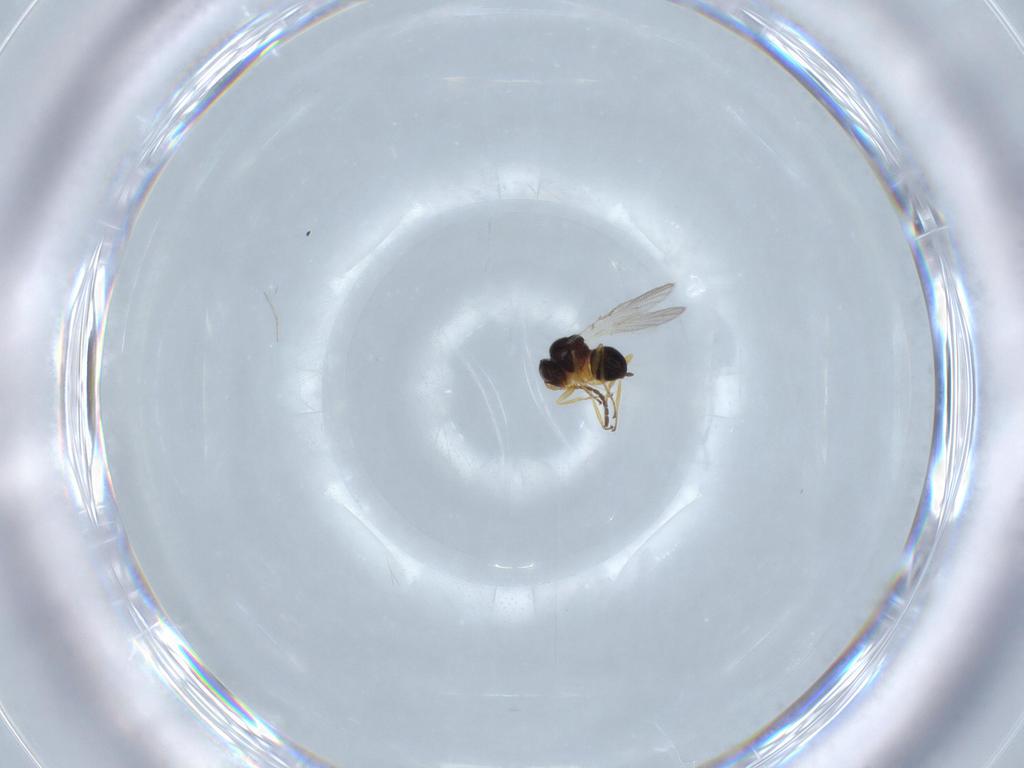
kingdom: Animalia
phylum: Arthropoda
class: Insecta
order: Hymenoptera
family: Figitidae
